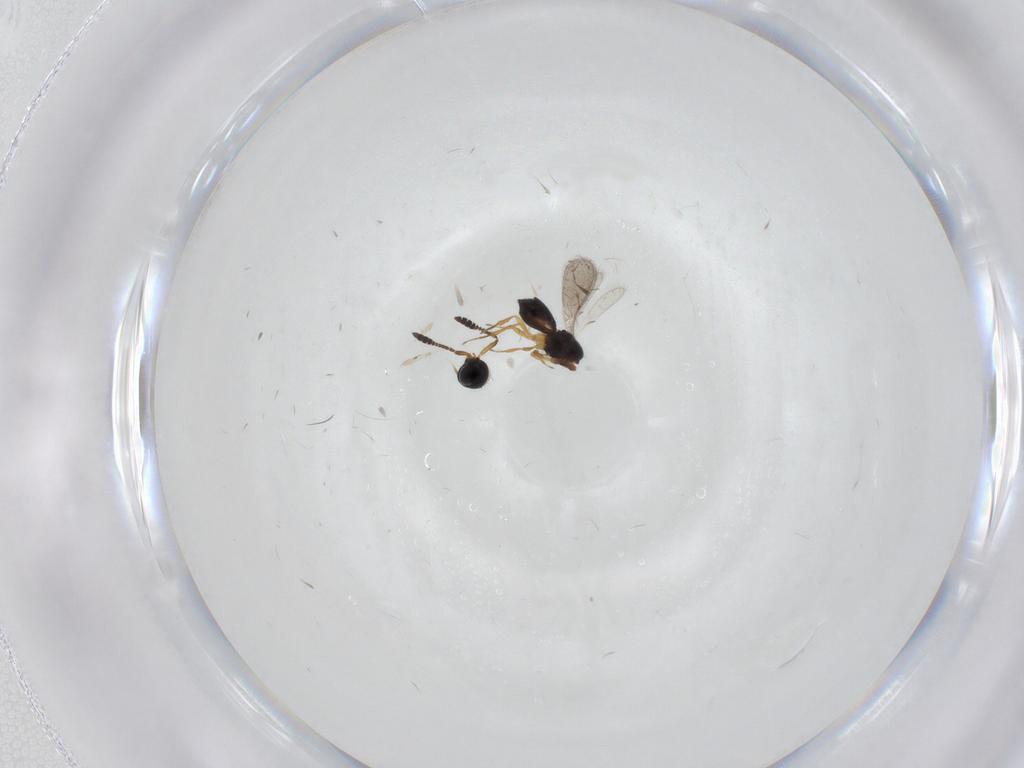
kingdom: Animalia
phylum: Arthropoda
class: Insecta
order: Hymenoptera
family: Scelionidae
